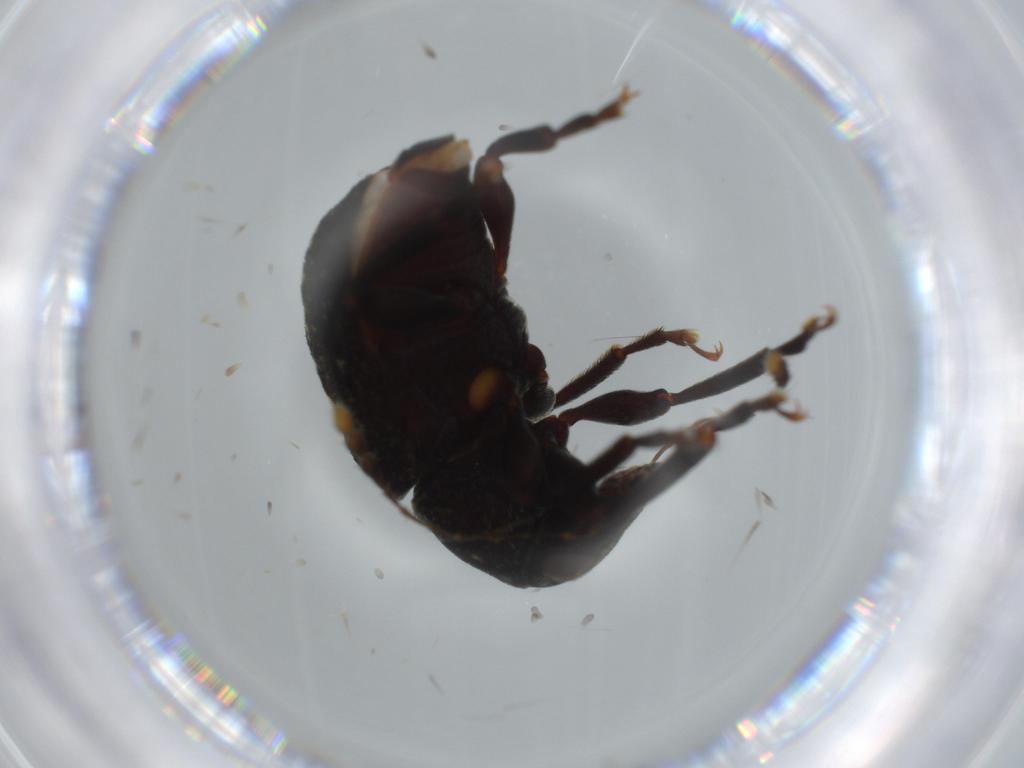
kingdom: Animalia
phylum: Arthropoda
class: Insecta
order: Coleoptera
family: Anthribidae
